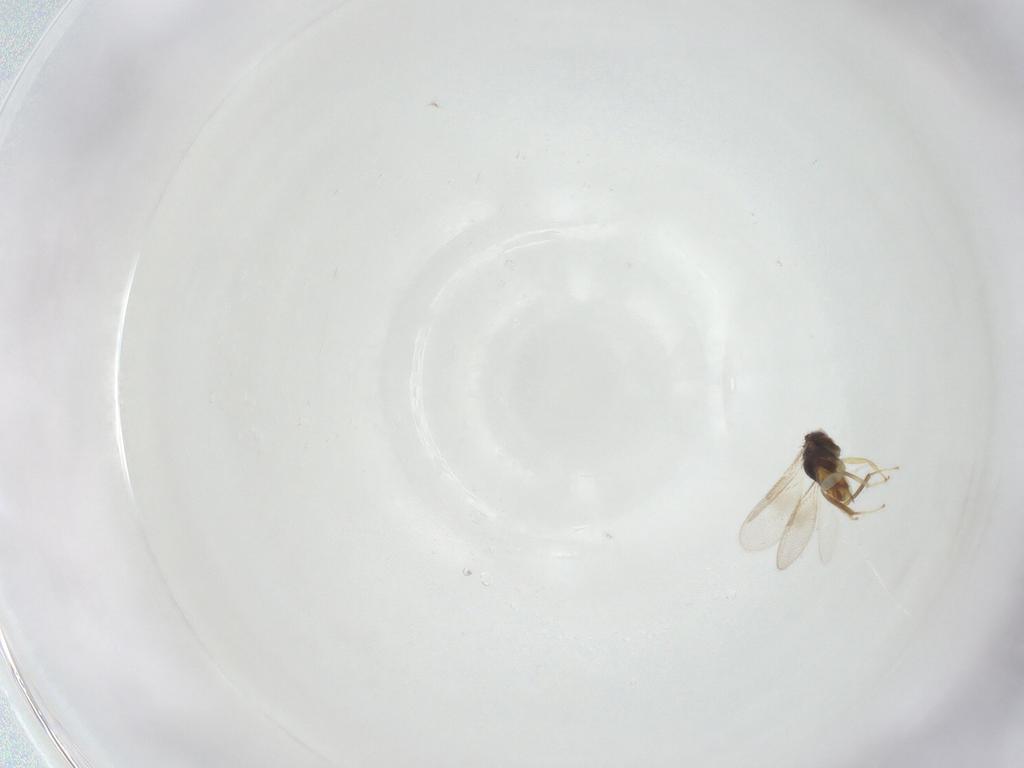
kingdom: Animalia
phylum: Arthropoda
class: Insecta
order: Hymenoptera
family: Aphelinidae
